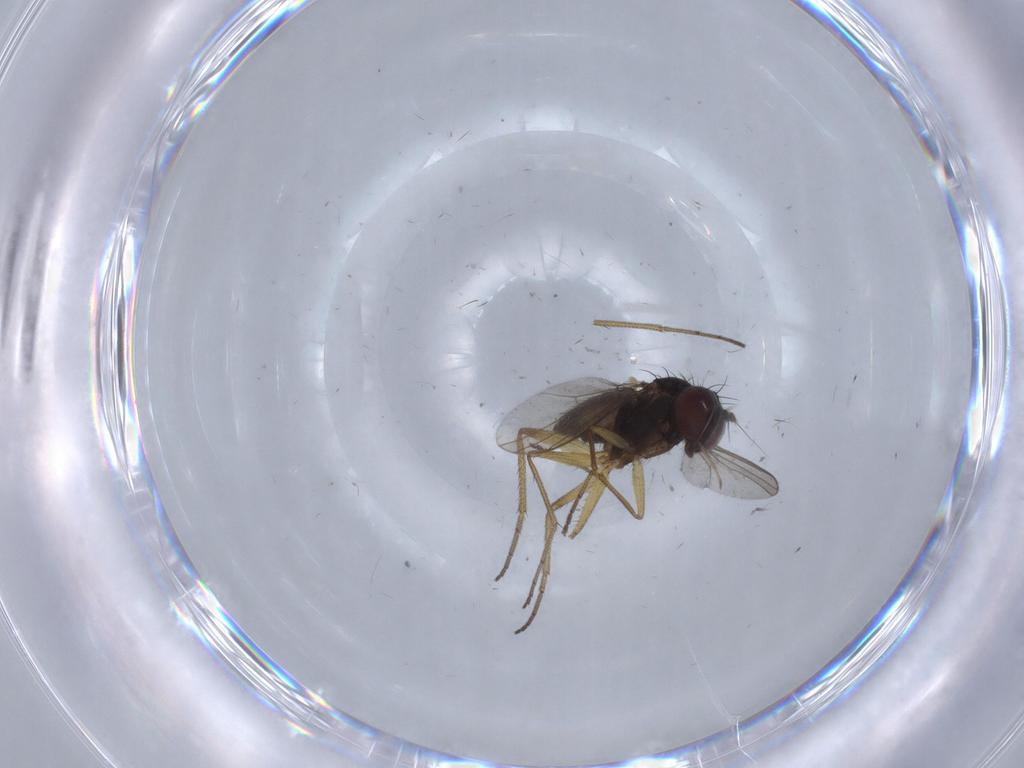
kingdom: Animalia
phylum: Arthropoda
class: Insecta
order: Diptera
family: Dolichopodidae
